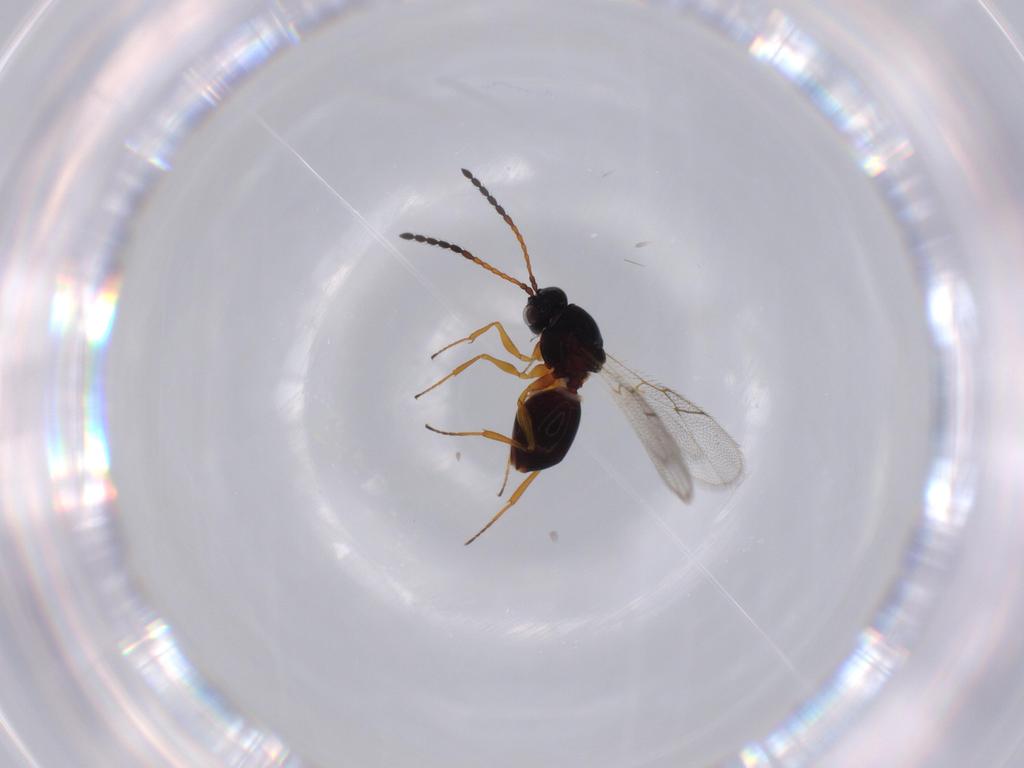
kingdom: Animalia
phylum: Arthropoda
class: Insecta
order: Hymenoptera
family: Figitidae
